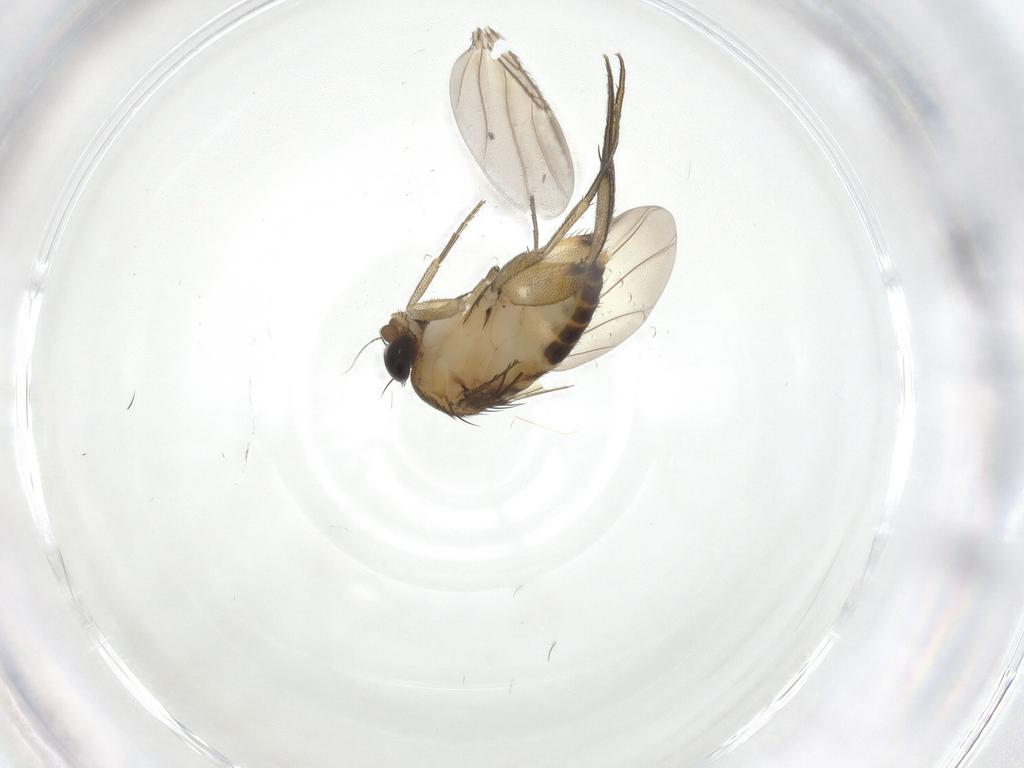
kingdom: Animalia
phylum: Arthropoda
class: Insecta
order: Diptera
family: Phoridae
